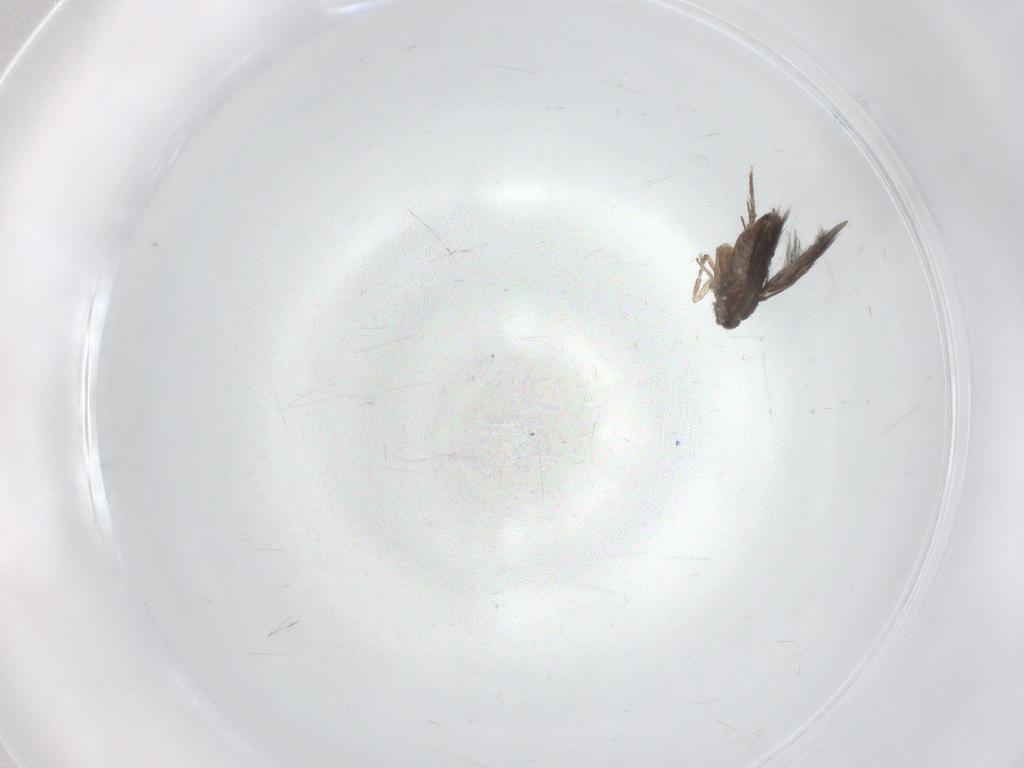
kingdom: Animalia
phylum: Arthropoda
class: Insecta
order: Trichoptera
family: Hydroptilidae
